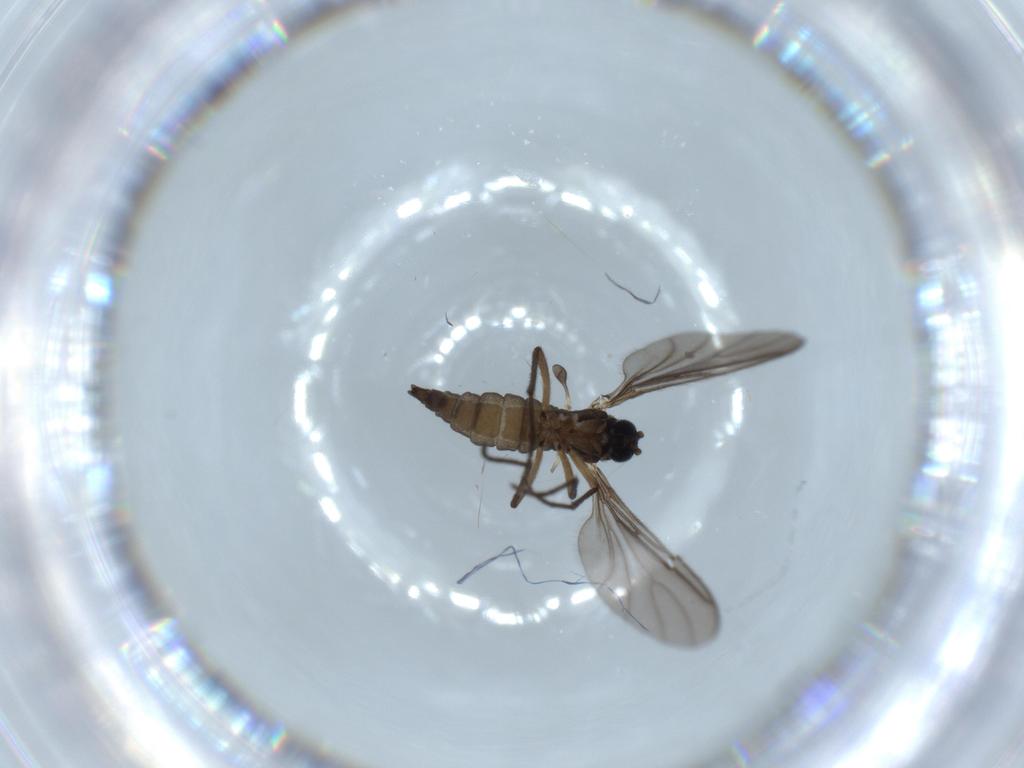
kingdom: Animalia
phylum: Arthropoda
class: Insecta
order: Diptera
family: Sciaridae
